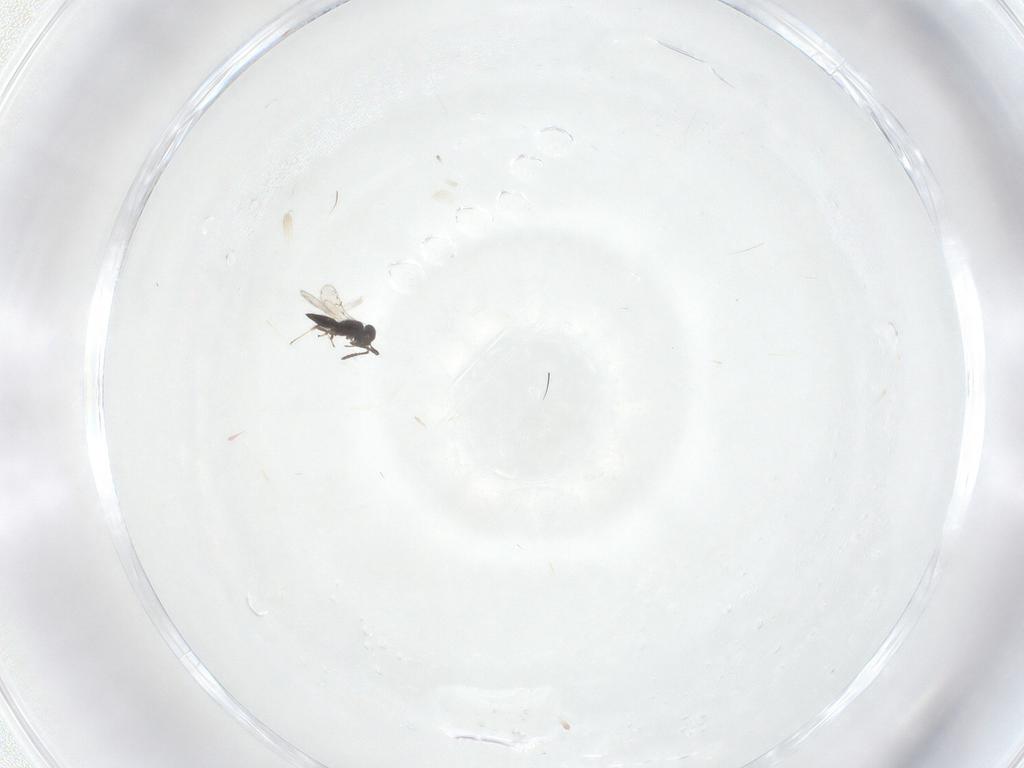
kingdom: Animalia
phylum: Arthropoda
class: Insecta
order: Hymenoptera
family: Scelionidae
